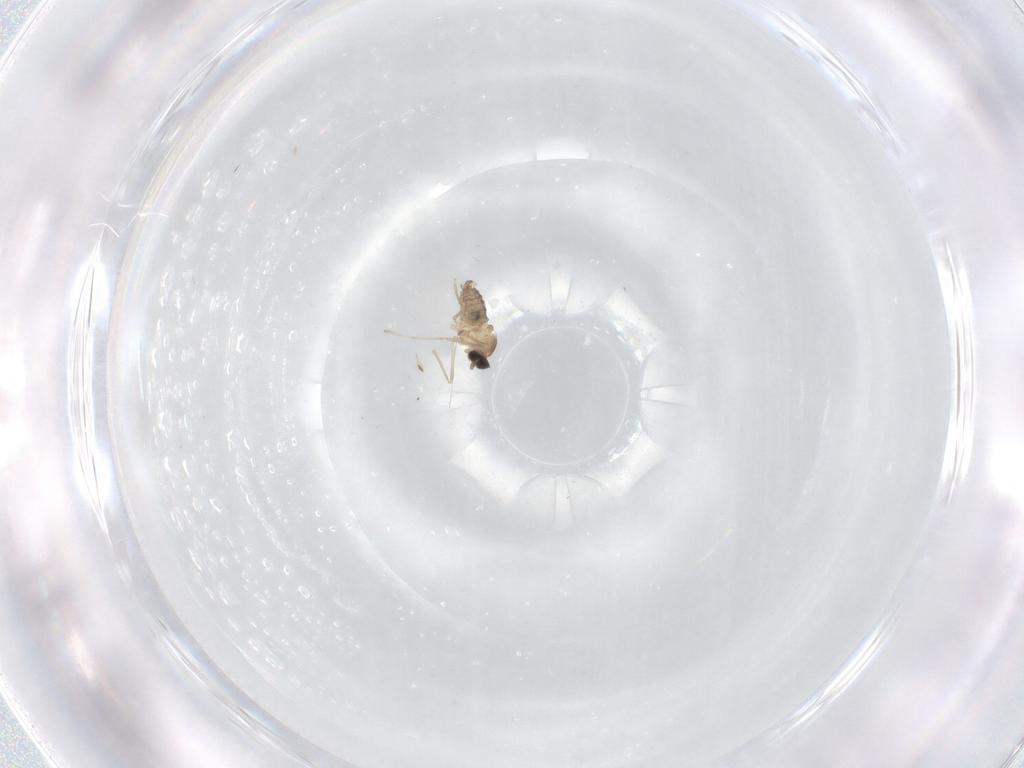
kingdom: Animalia
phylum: Arthropoda
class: Insecta
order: Diptera
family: Cecidomyiidae
